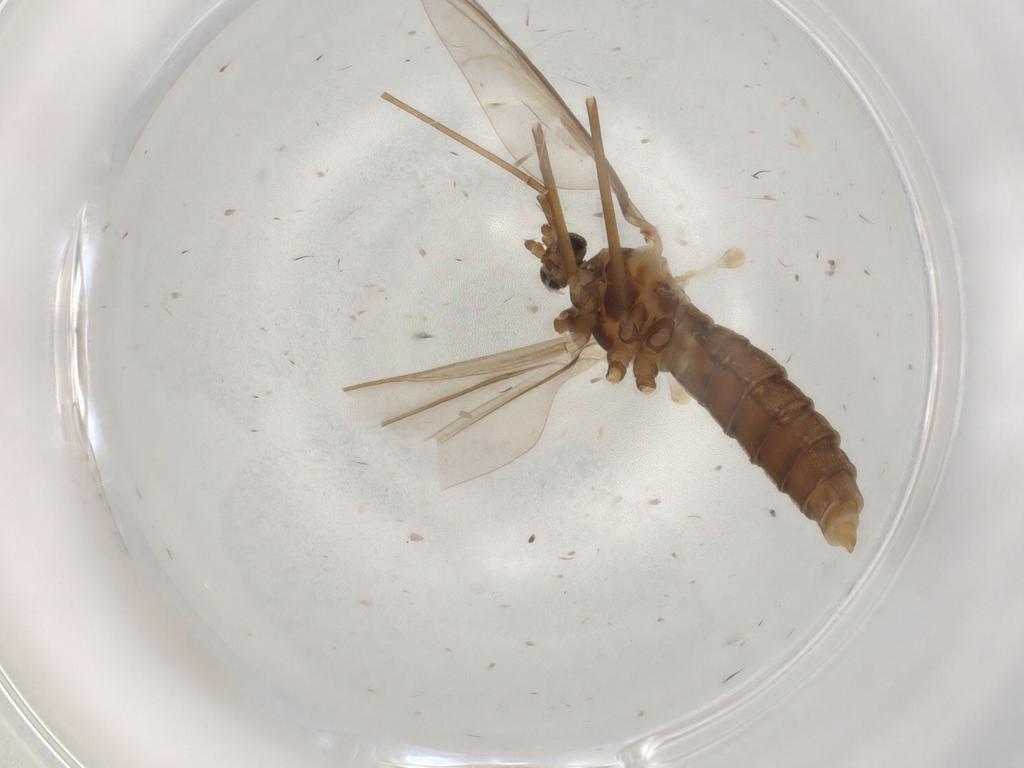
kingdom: Animalia
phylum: Arthropoda
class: Insecta
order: Diptera
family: Cecidomyiidae
